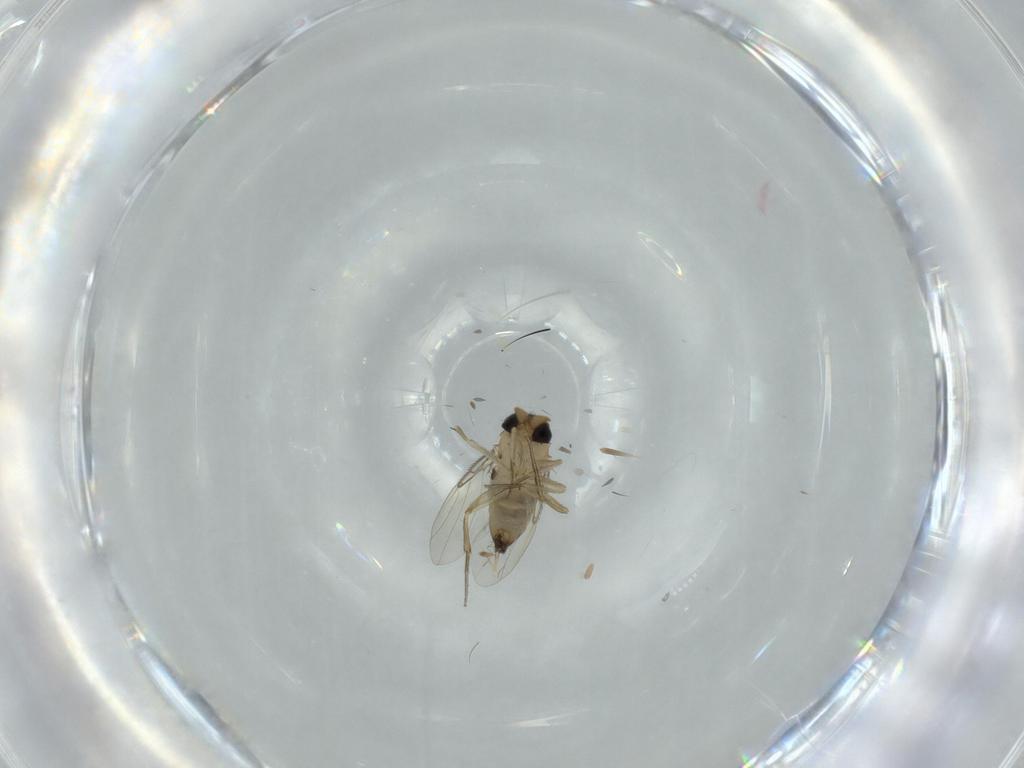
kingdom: Animalia
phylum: Arthropoda
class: Insecta
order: Diptera
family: Phoridae
